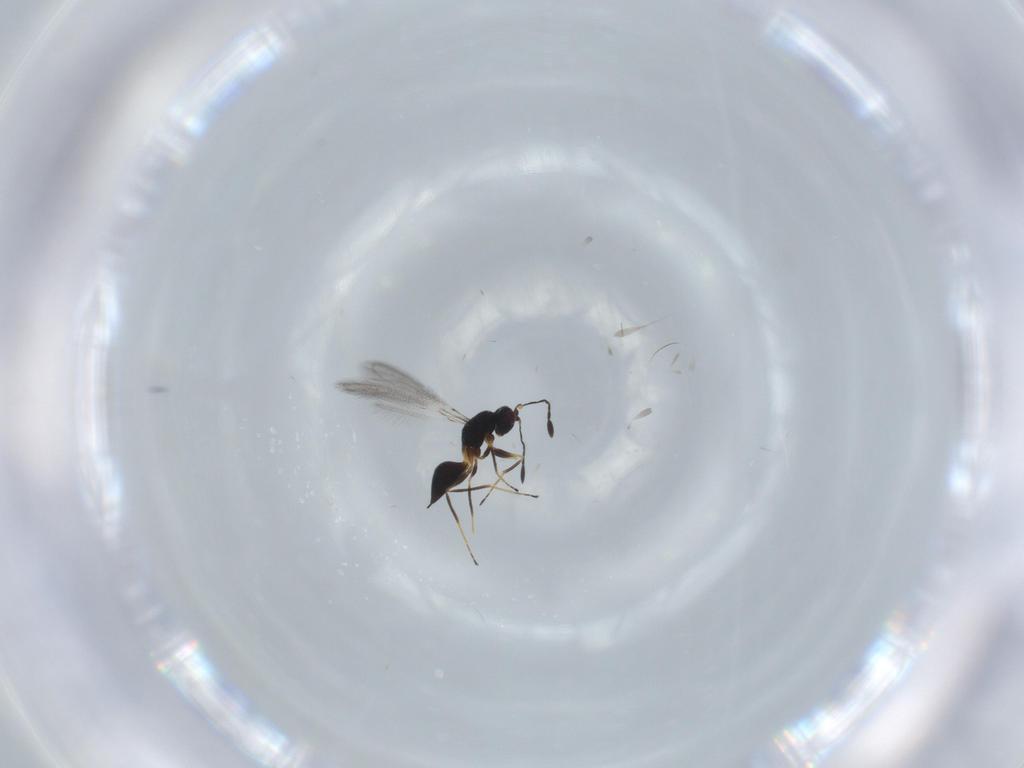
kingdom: Animalia
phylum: Arthropoda
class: Insecta
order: Hymenoptera
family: Mymaridae
